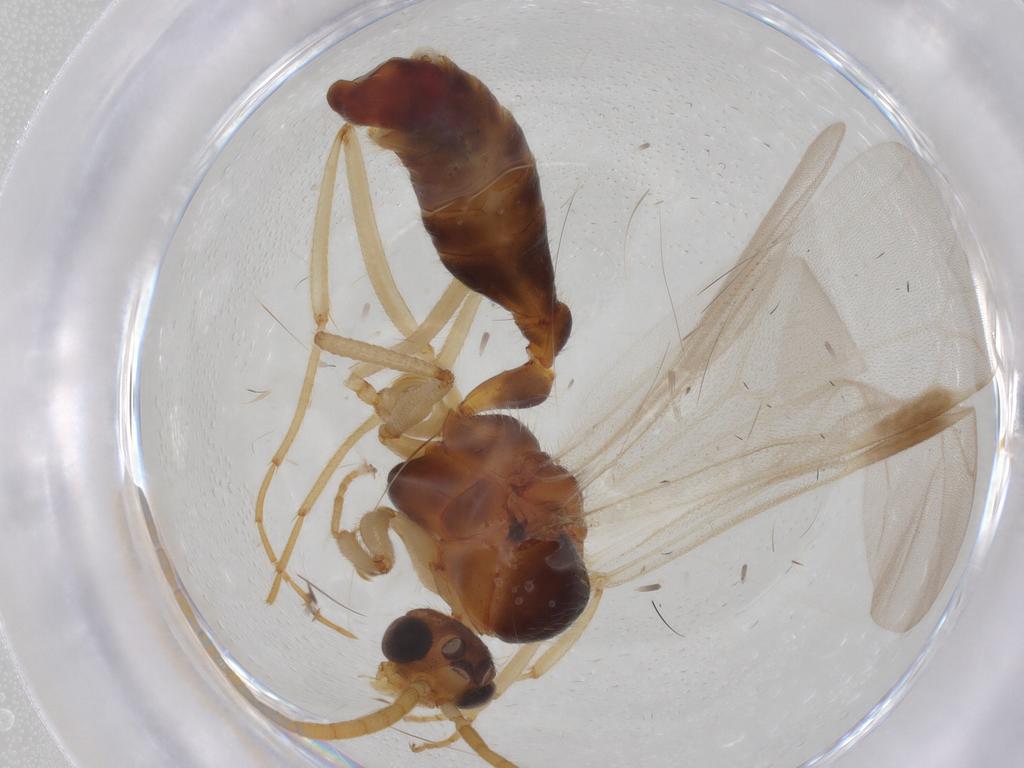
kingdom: Animalia
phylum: Arthropoda
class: Insecta
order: Hymenoptera
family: Formicidae
